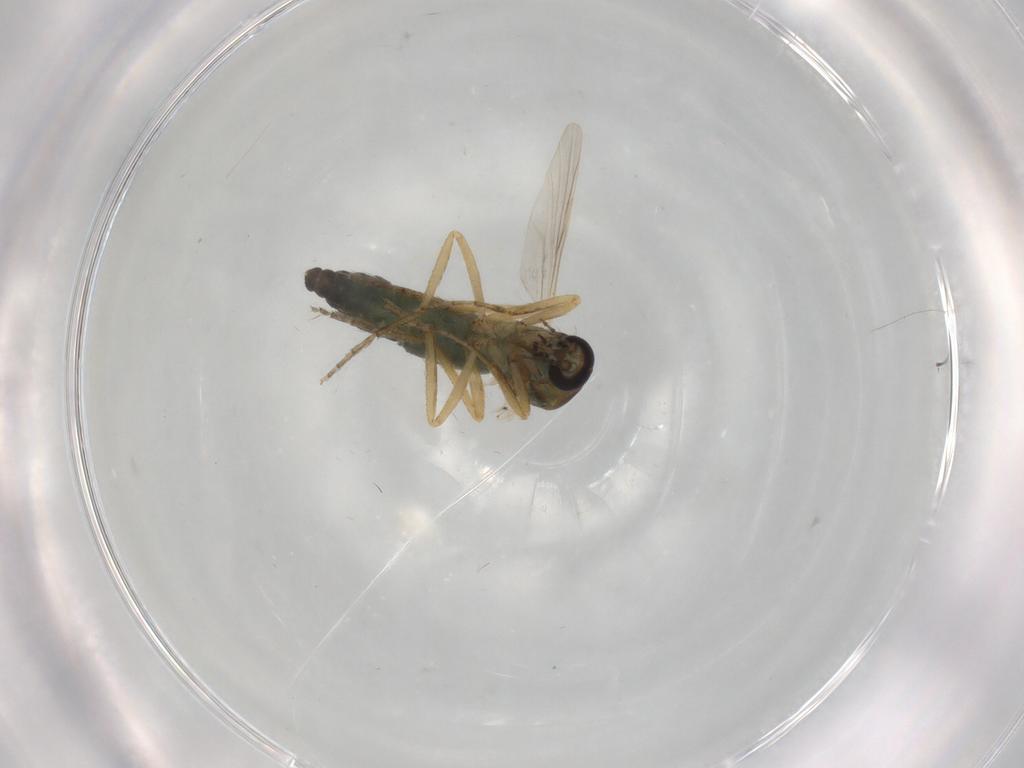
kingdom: Animalia
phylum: Arthropoda
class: Insecta
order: Diptera
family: Ceratopogonidae
